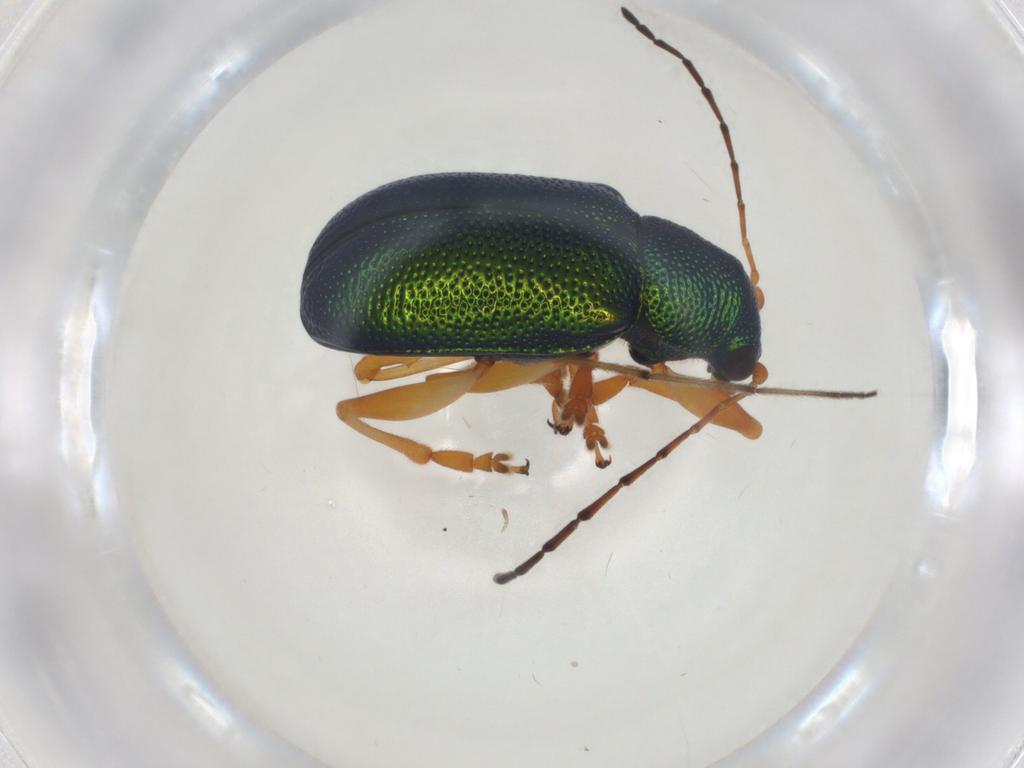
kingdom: Animalia
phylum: Arthropoda
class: Insecta
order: Coleoptera
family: Chrysomelidae
